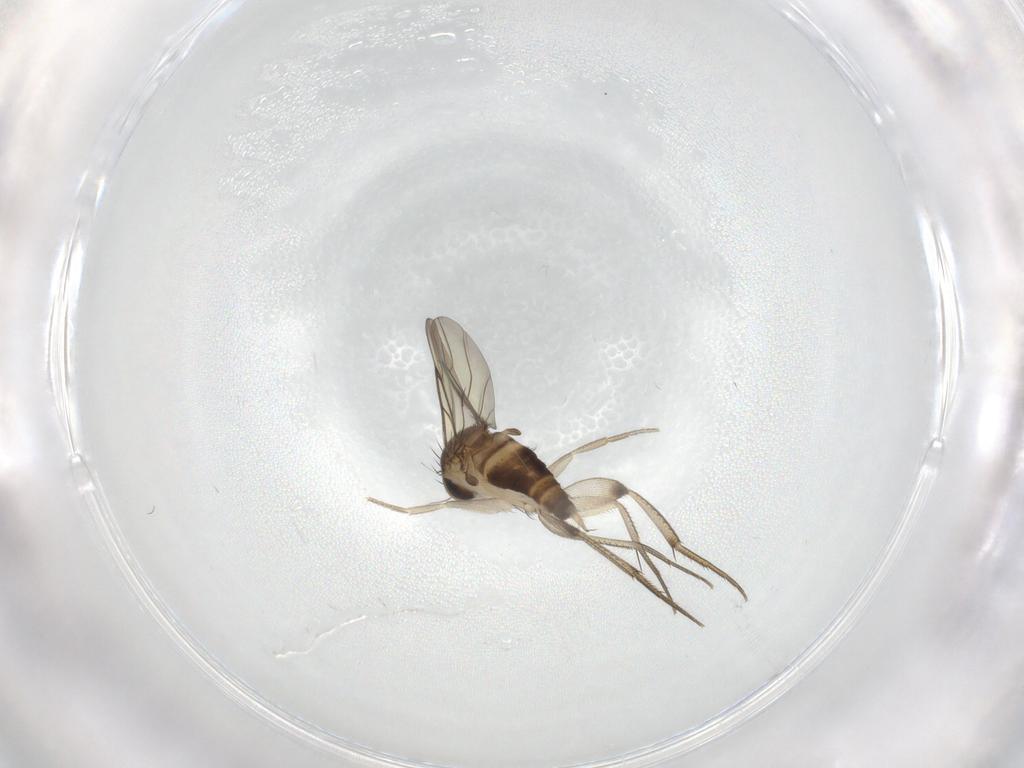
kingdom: Animalia
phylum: Arthropoda
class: Insecta
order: Diptera
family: Phoridae
